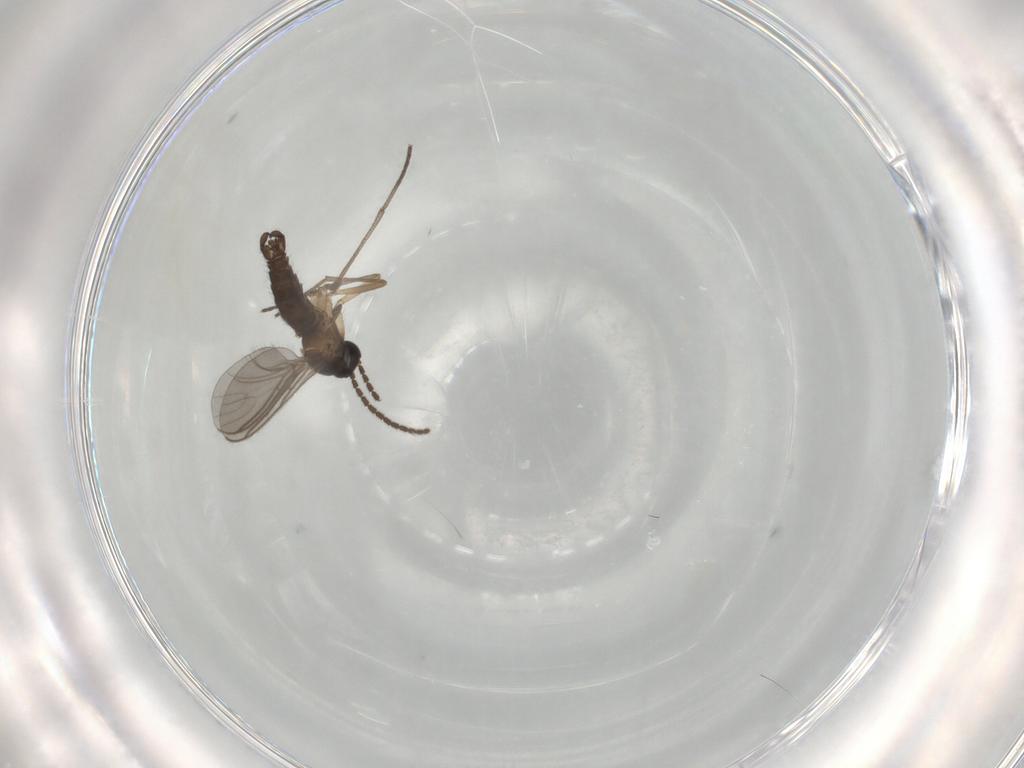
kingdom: Animalia
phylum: Arthropoda
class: Insecta
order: Diptera
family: Sciaridae
